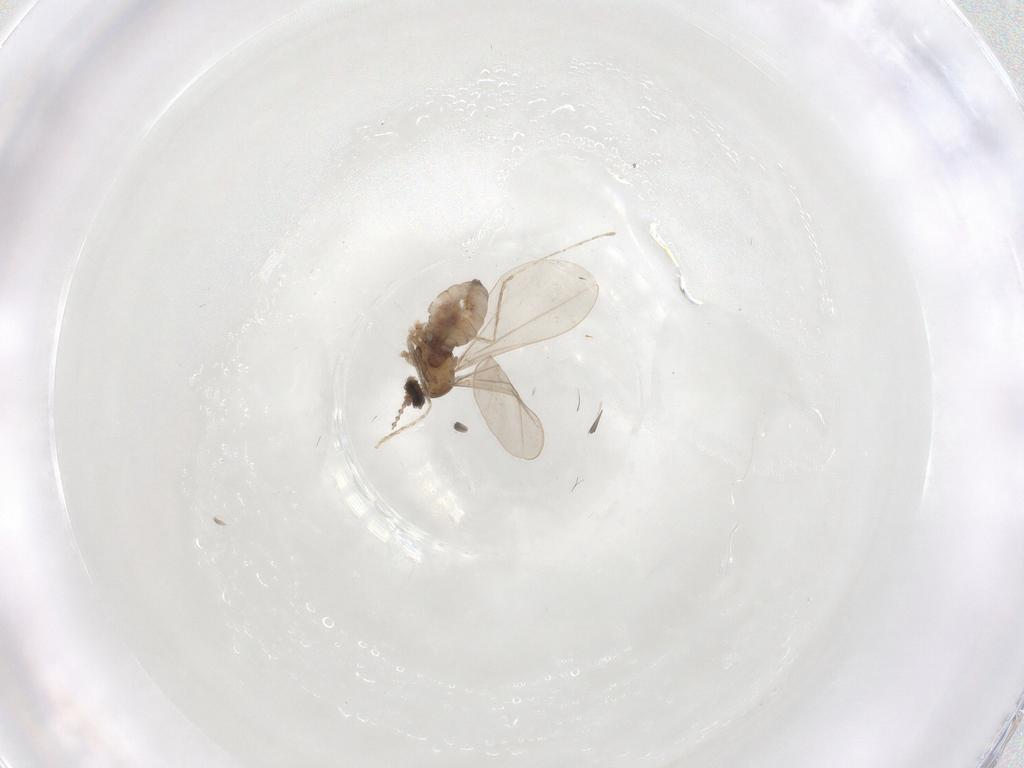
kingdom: Animalia
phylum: Arthropoda
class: Insecta
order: Diptera
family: Cecidomyiidae
